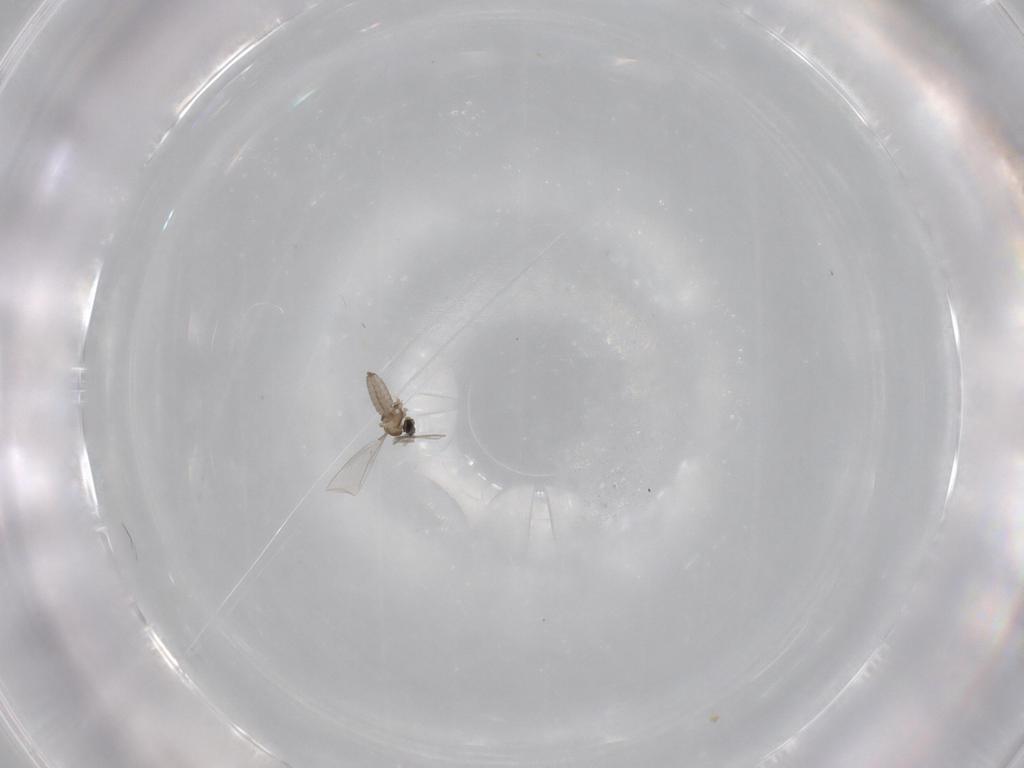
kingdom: Animalia
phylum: Arthropoda
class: Insecta
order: Diptera
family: Cecidomyiidae
